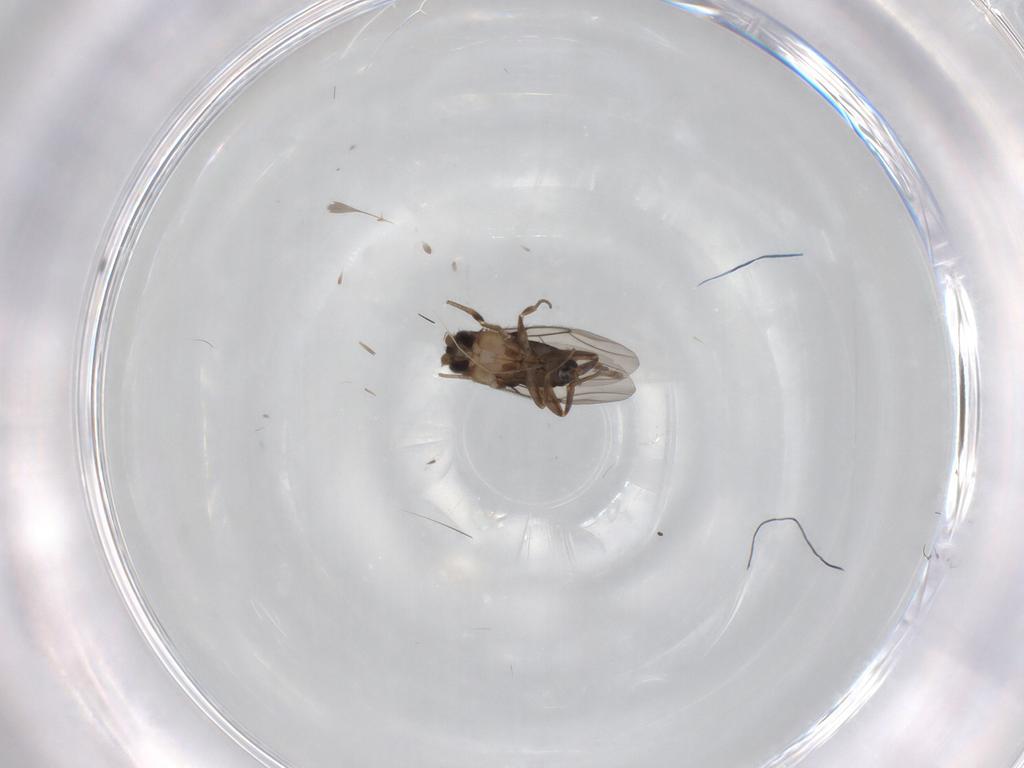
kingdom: Animalia
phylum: Arthropoda
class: Insecta
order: Diptera
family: Phoridae
